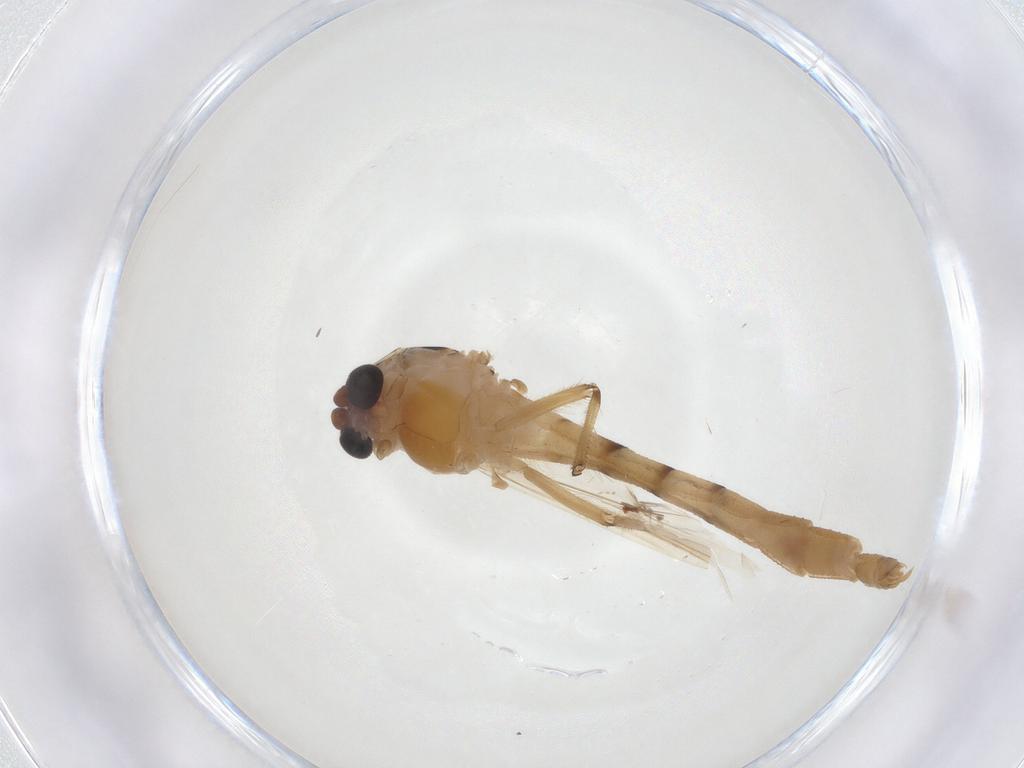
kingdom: Animalia
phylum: Arthropoda
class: Insecta
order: Diptera
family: Chironomidae
